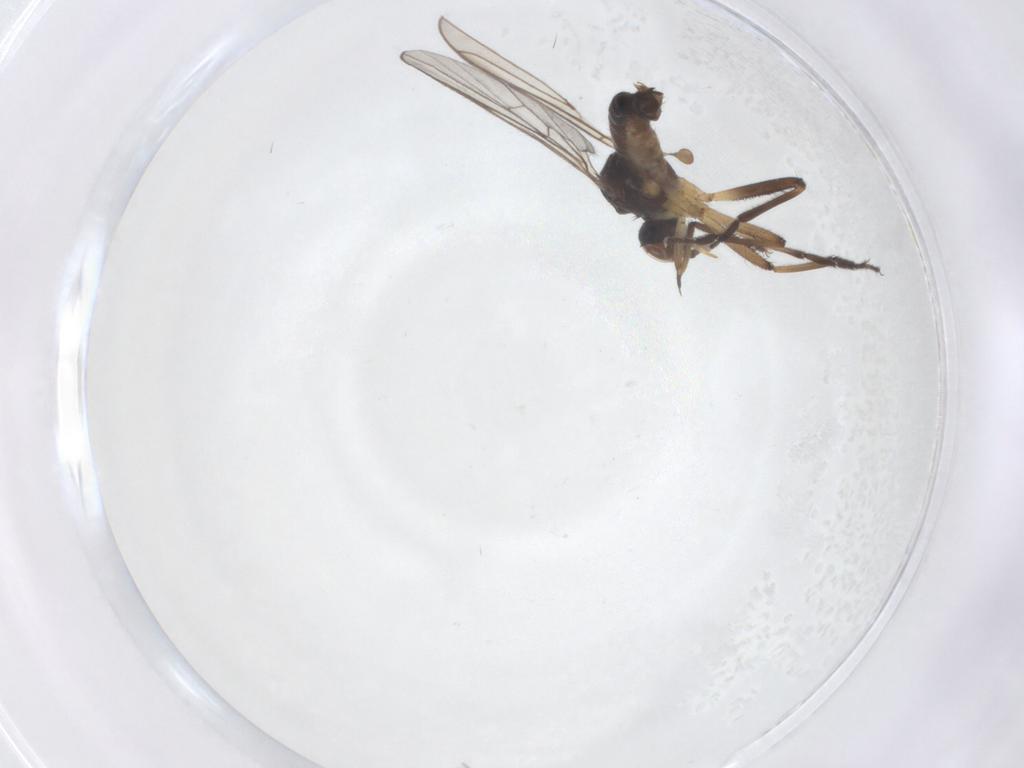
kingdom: Animalia
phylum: Arthropoda
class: Insecta
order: Diptera
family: Empididae
